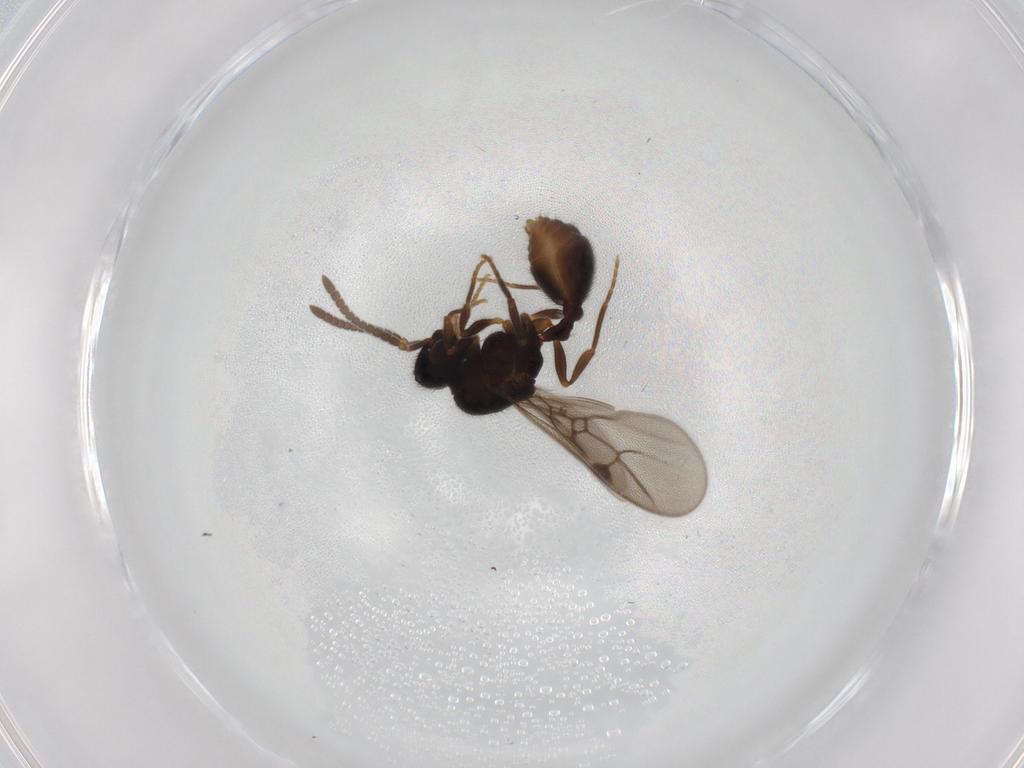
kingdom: Animalia
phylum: Arthropoda
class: Insecta
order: Hymenoptera
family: Formicidae
